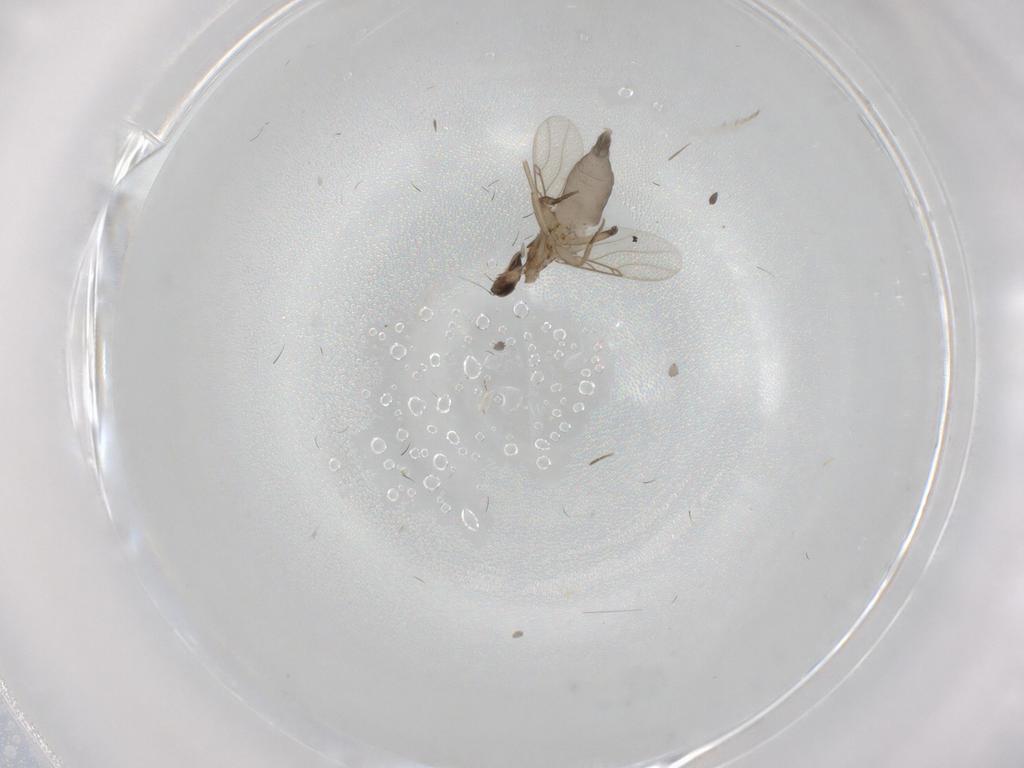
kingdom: Animalia
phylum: Arthropoda
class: Insecta
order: Diptera
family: Phoridae
